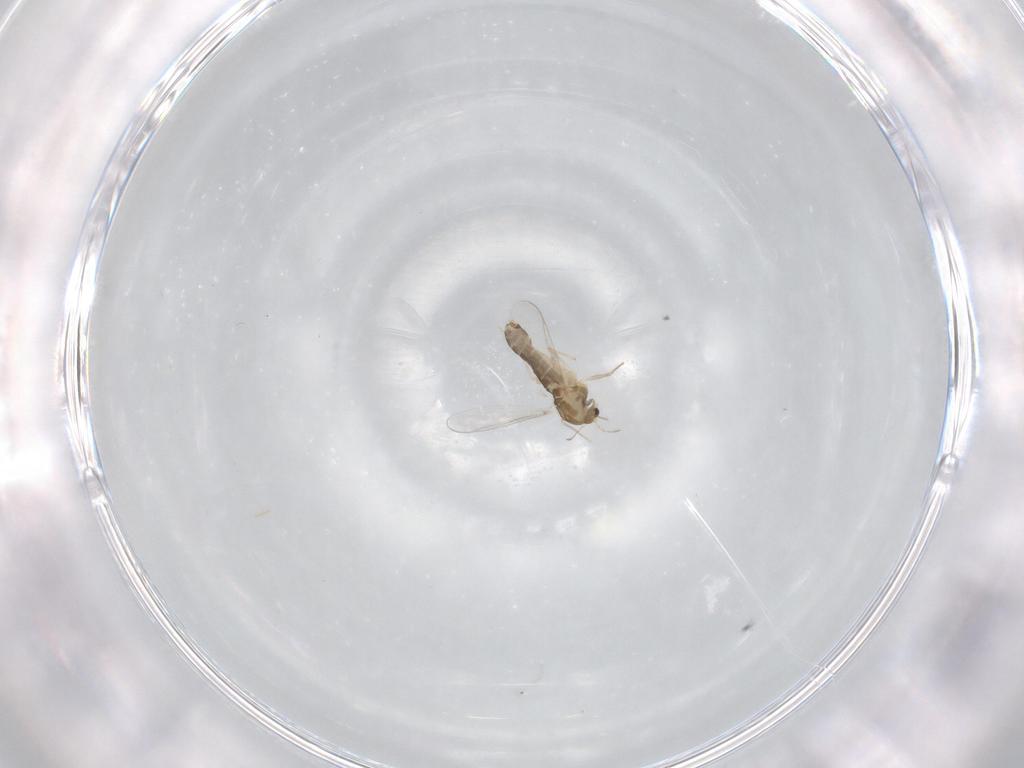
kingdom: Animalia
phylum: Arthropoda
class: Insecta
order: Diptera
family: Chironomidae
